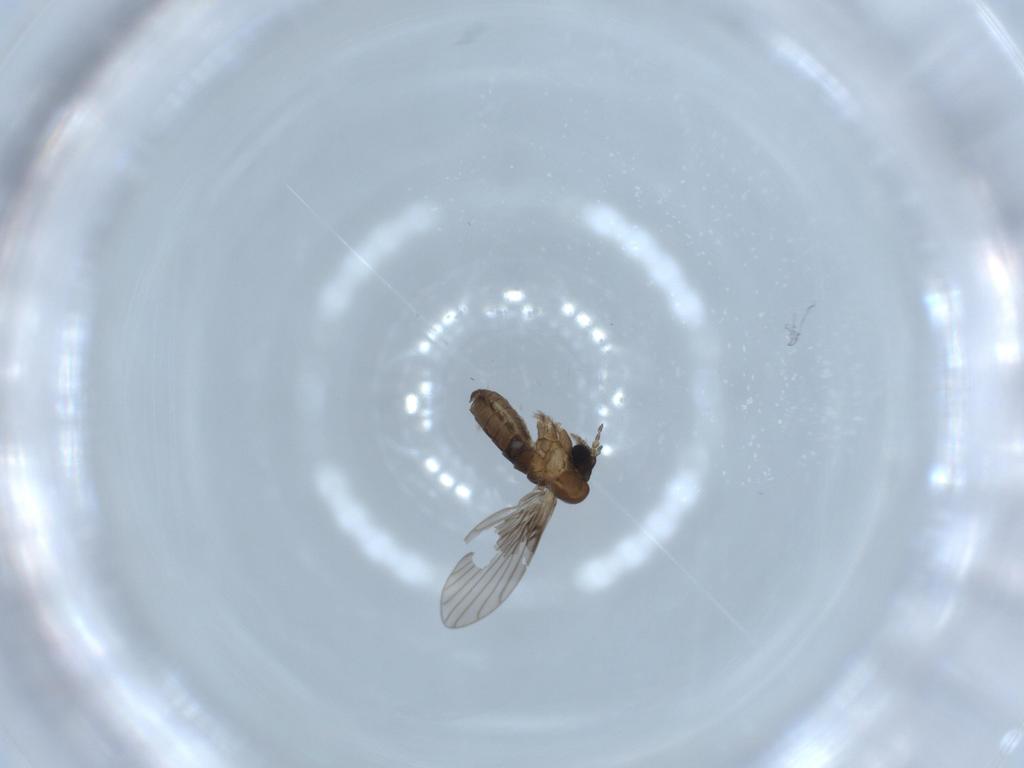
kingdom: Animalia
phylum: Arthropoda
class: Insecta
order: Diptera
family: Psychodidae
